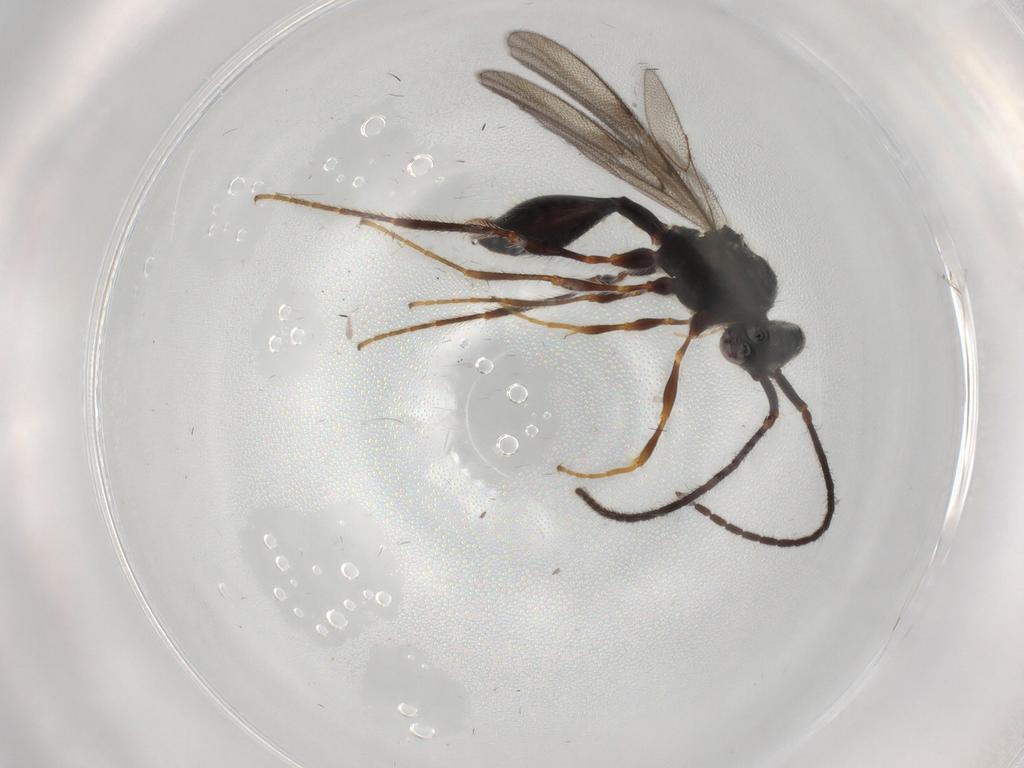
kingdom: Animalia
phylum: Arthropoda
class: Insecta
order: Hymenoptera
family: Diapriidae
